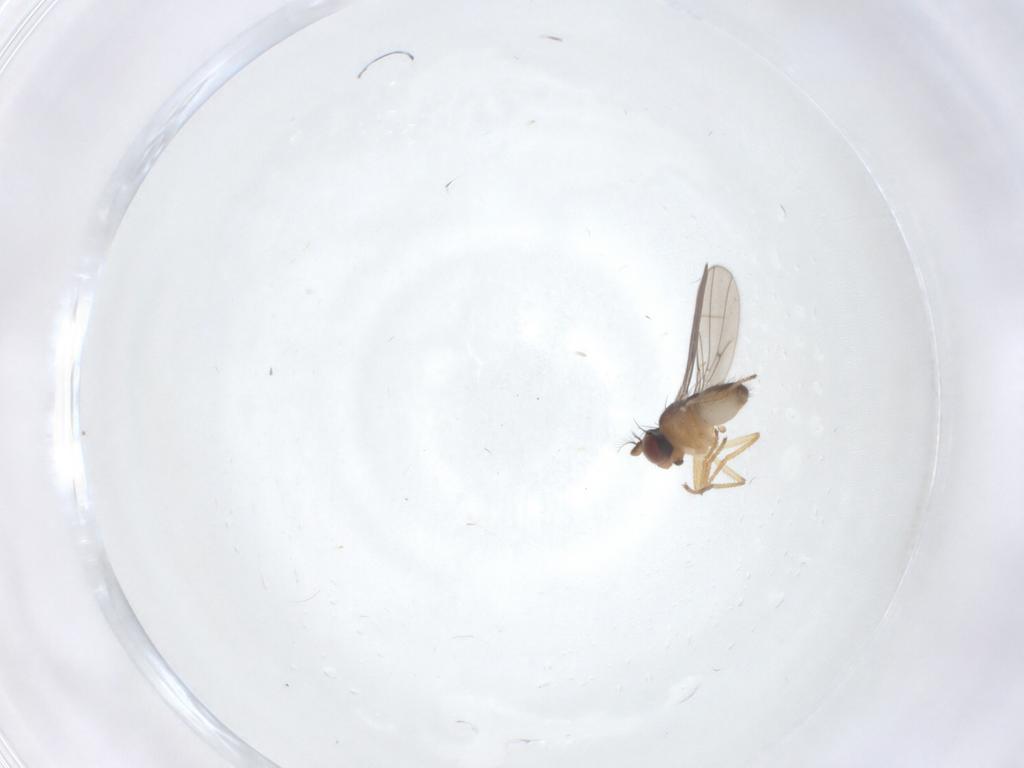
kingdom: Animalia
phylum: Arthropoda
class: Insecta
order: Diptera
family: Ephydridae
